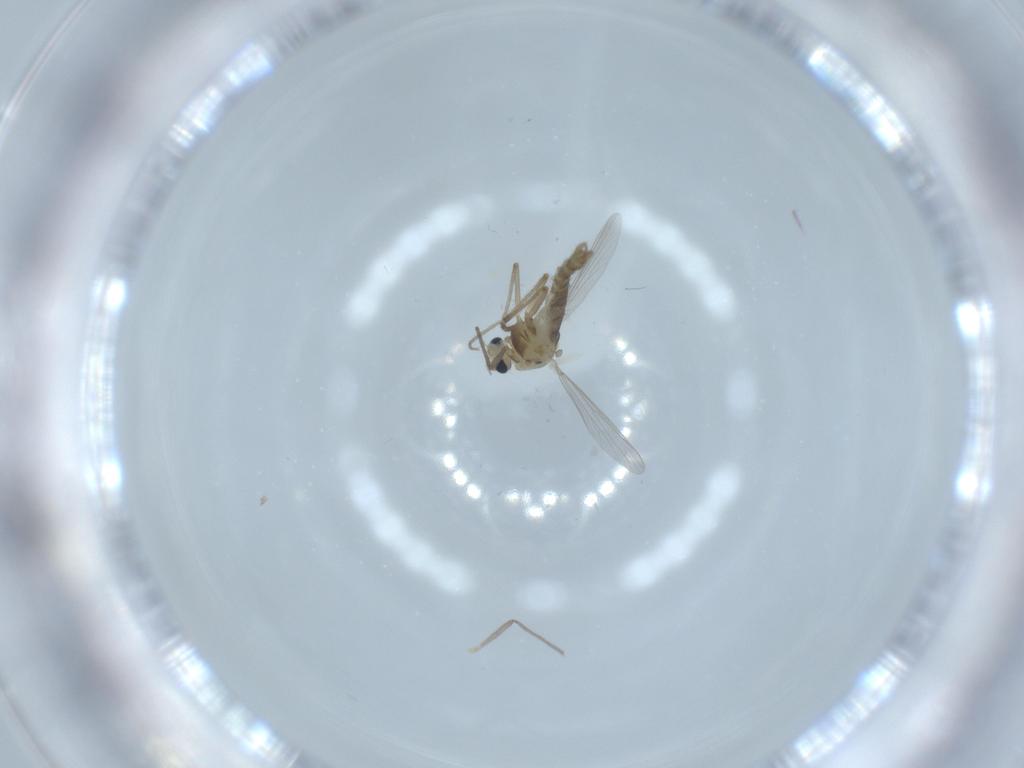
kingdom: Animalia
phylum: Arthropoda
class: Insecta
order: Diptera
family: Chironomidae
